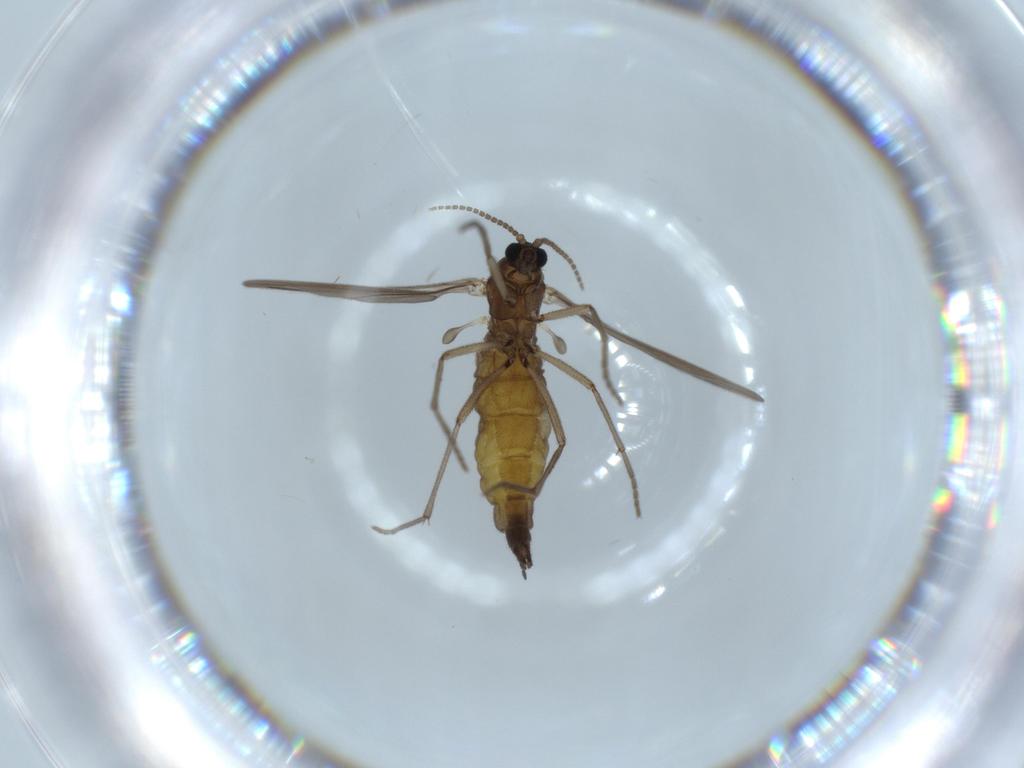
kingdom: Animalia
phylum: Arthropoda
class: Insecta
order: Diptera
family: Sciaridae
